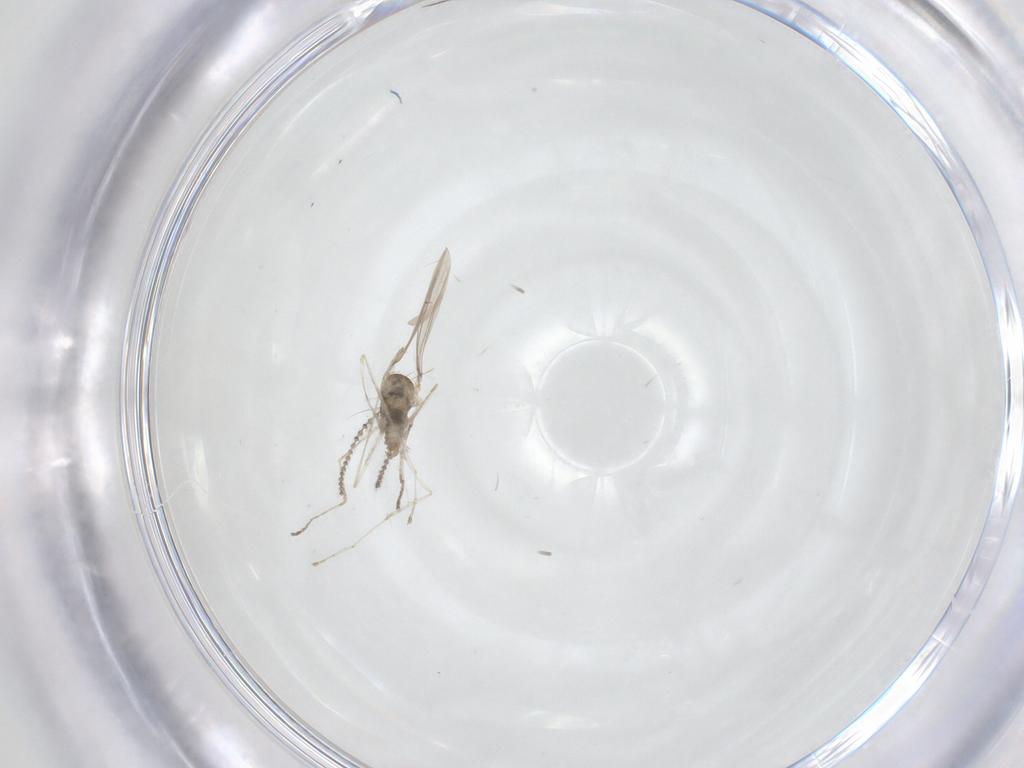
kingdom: Animalia
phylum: Arthropoda
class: Insecta
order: Diptera
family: Cecidomyiidae
